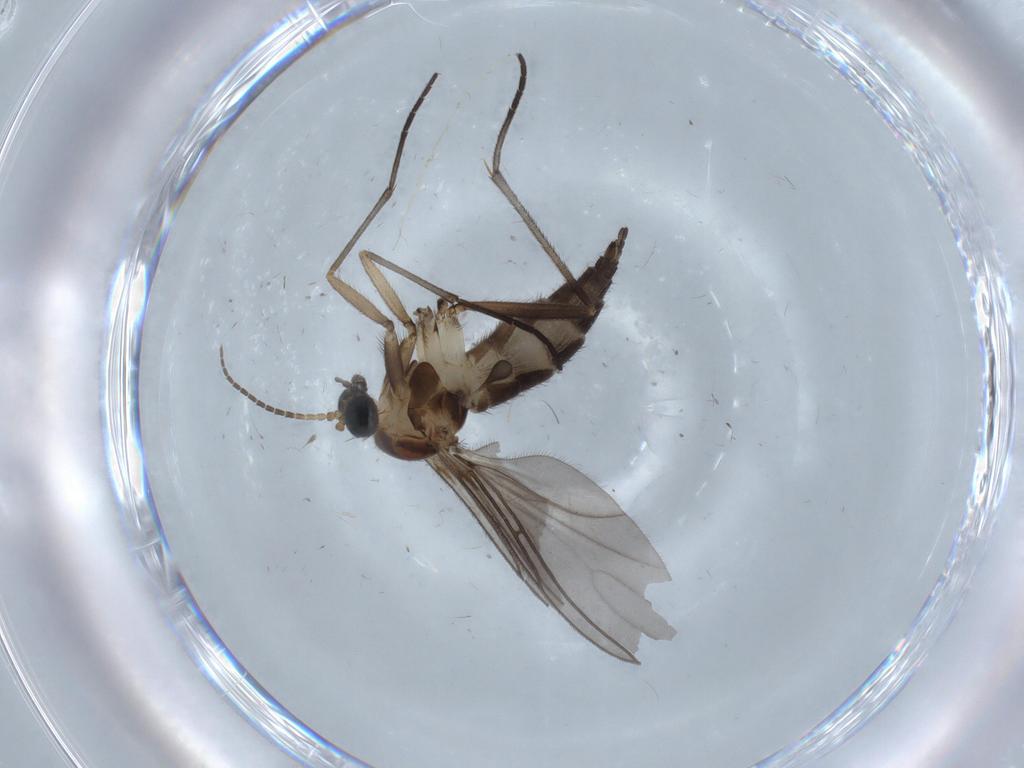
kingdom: Animalia
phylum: Arthropoda
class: Insecta
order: Diptera
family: Sciaridae
